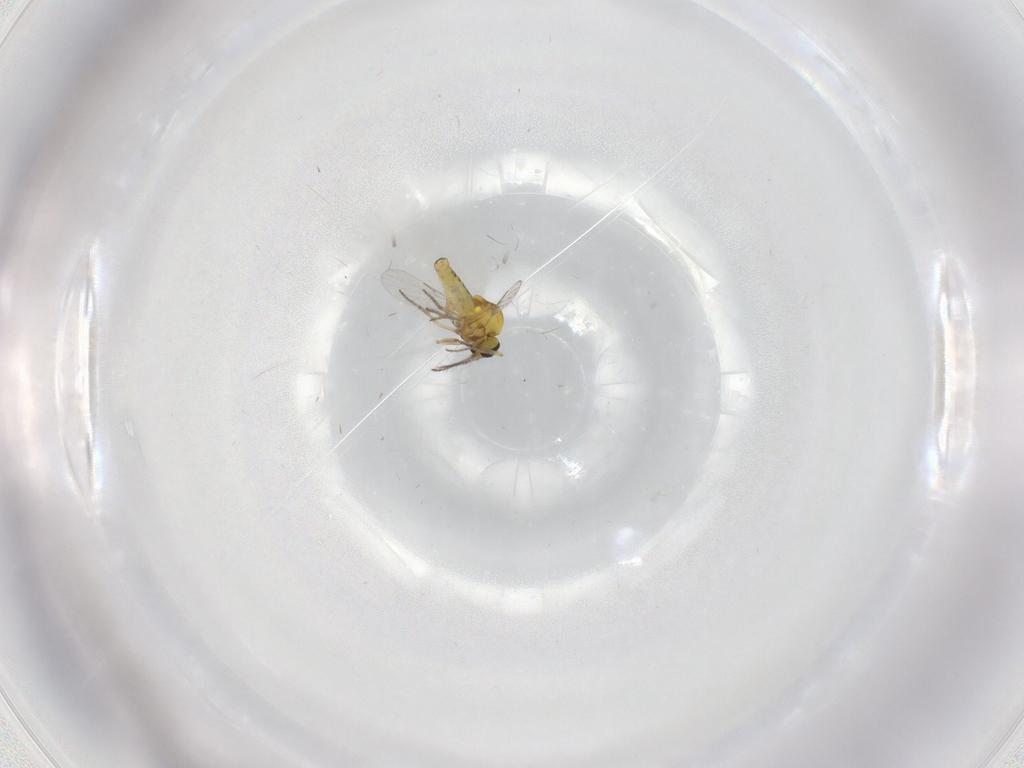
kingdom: Animalia
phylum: Arthropoda
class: Insecta
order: Diptera
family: Ceratopogonidae
